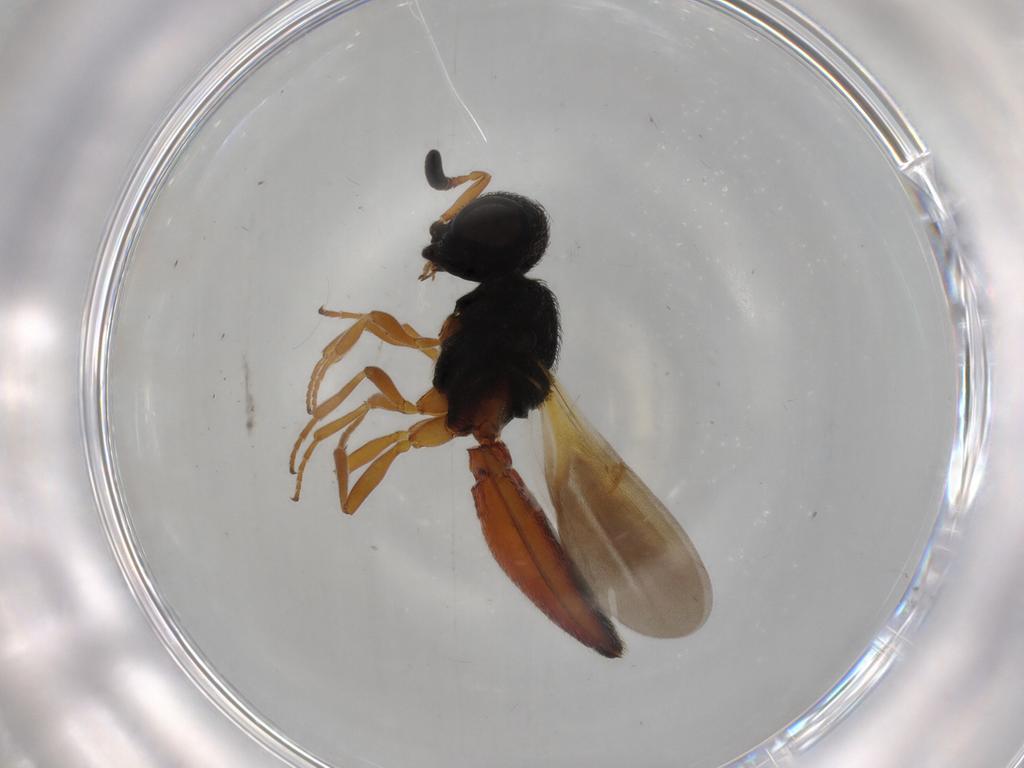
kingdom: Animalia
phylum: Arthropoda
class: Insecta
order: Hymenoptera
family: Scelionidae
